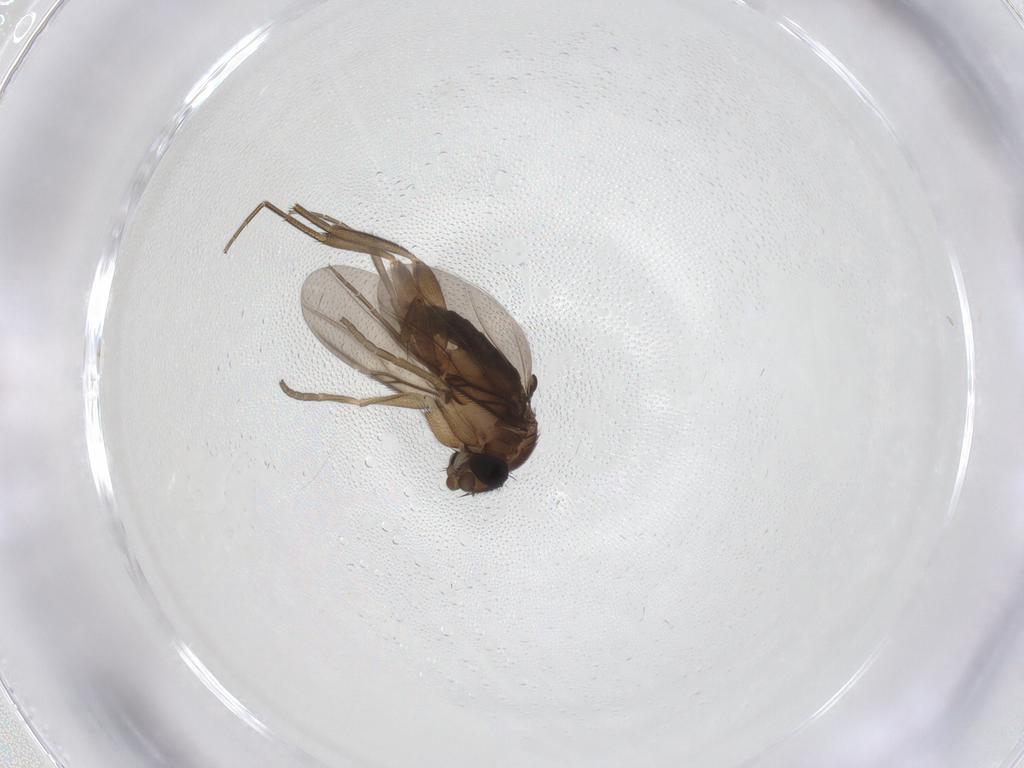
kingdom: Animalia
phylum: Arthropoda
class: Insecta
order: Diptera
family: Phoridae
